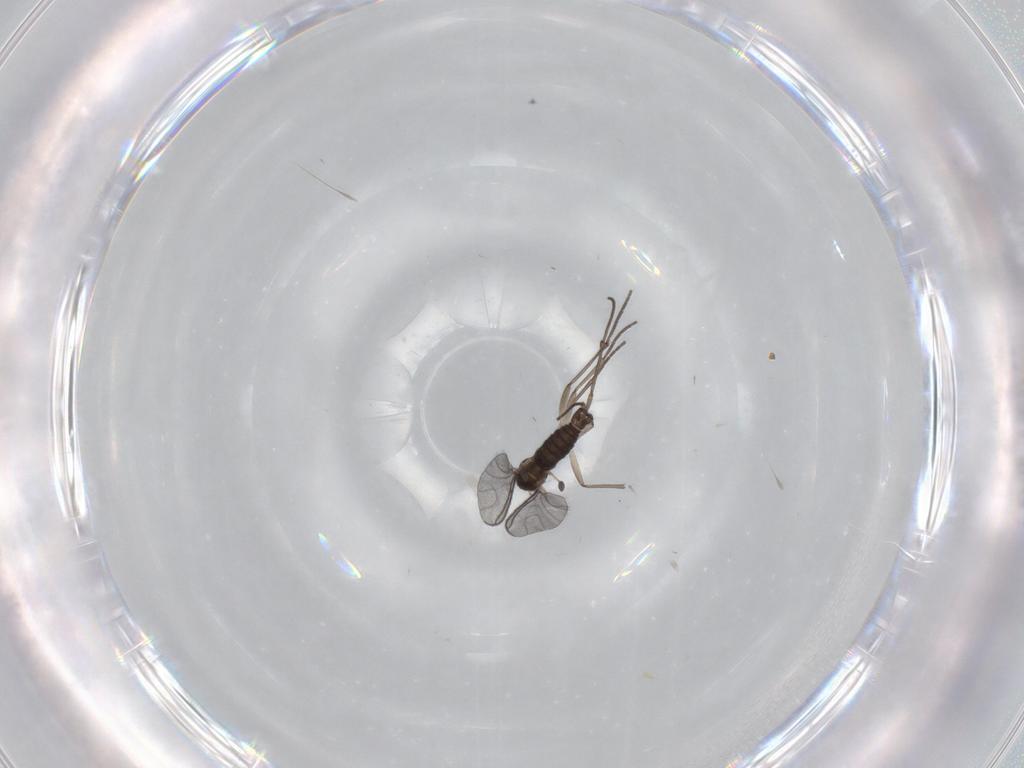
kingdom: Animalia
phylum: Arthropoda
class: Insecta
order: Diptera
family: Sciaridae
